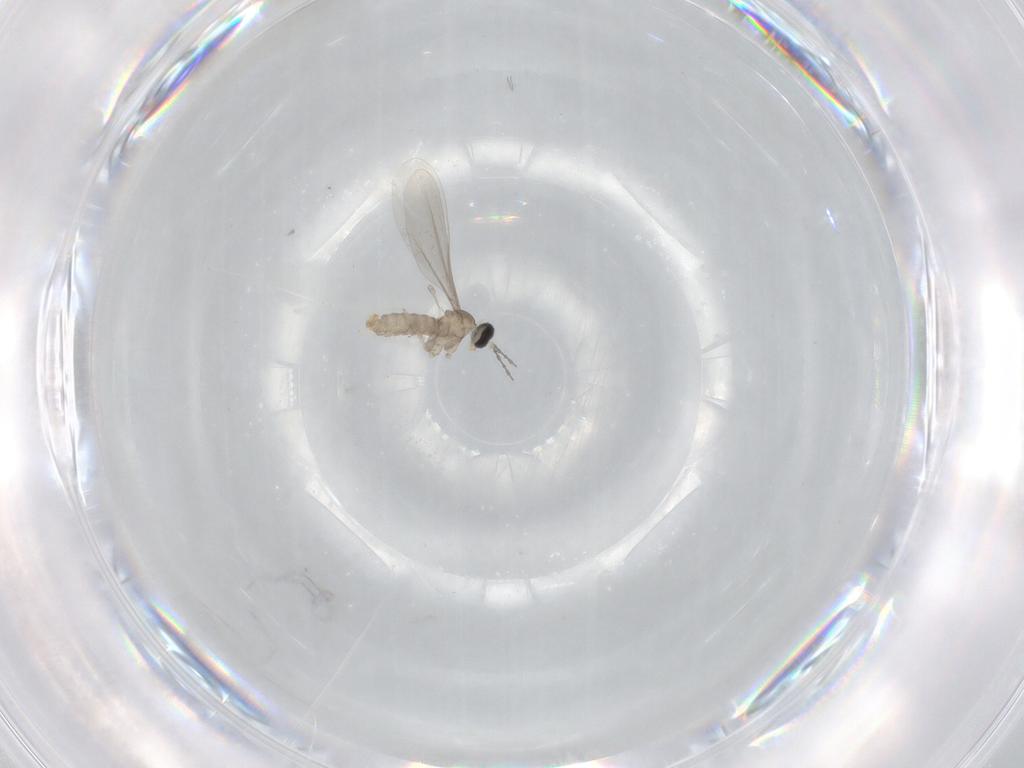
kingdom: Animalia
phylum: Arthropoda
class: Insecta
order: Diptera
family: Cecidomyiidae
